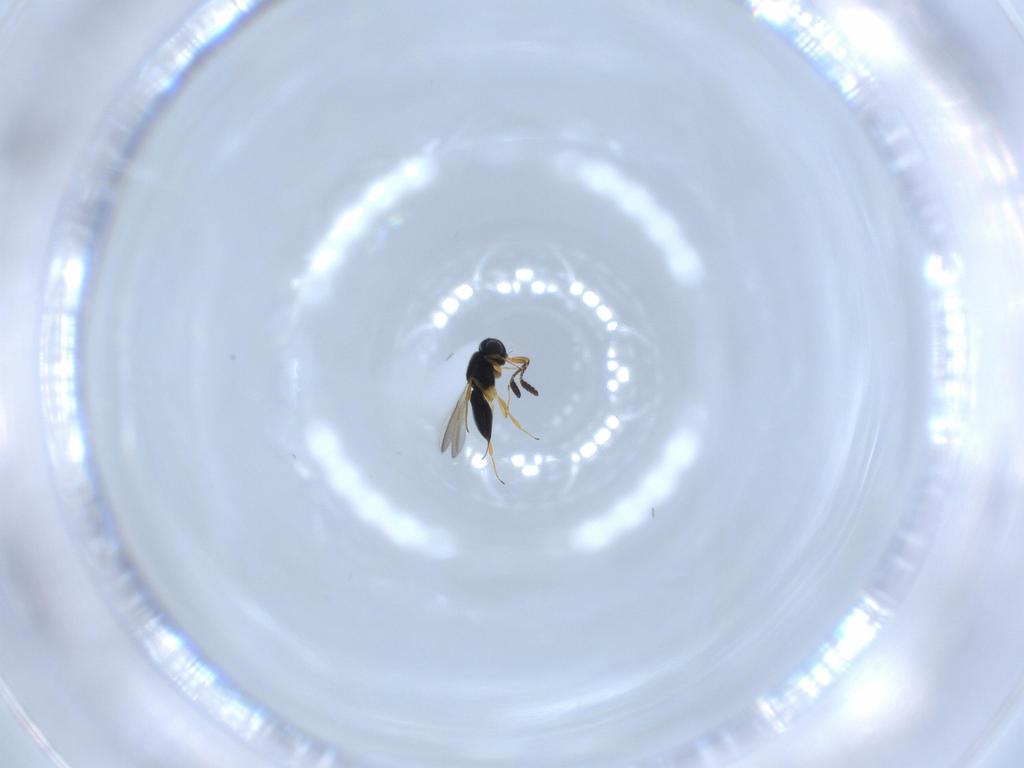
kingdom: Animalia
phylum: Arthropoda
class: Insecta
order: Hymenoptera
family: Scelionidae
